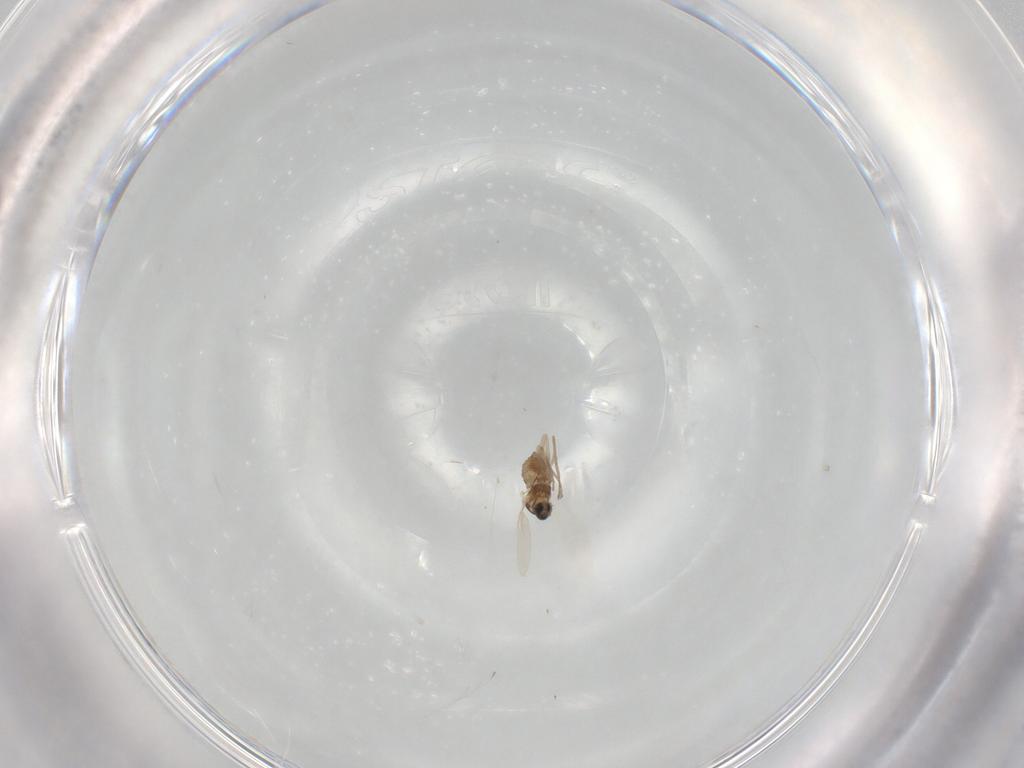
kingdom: Animalia
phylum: Arthropoda
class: Insecta
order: Diptera
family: Cecidomyiidae
